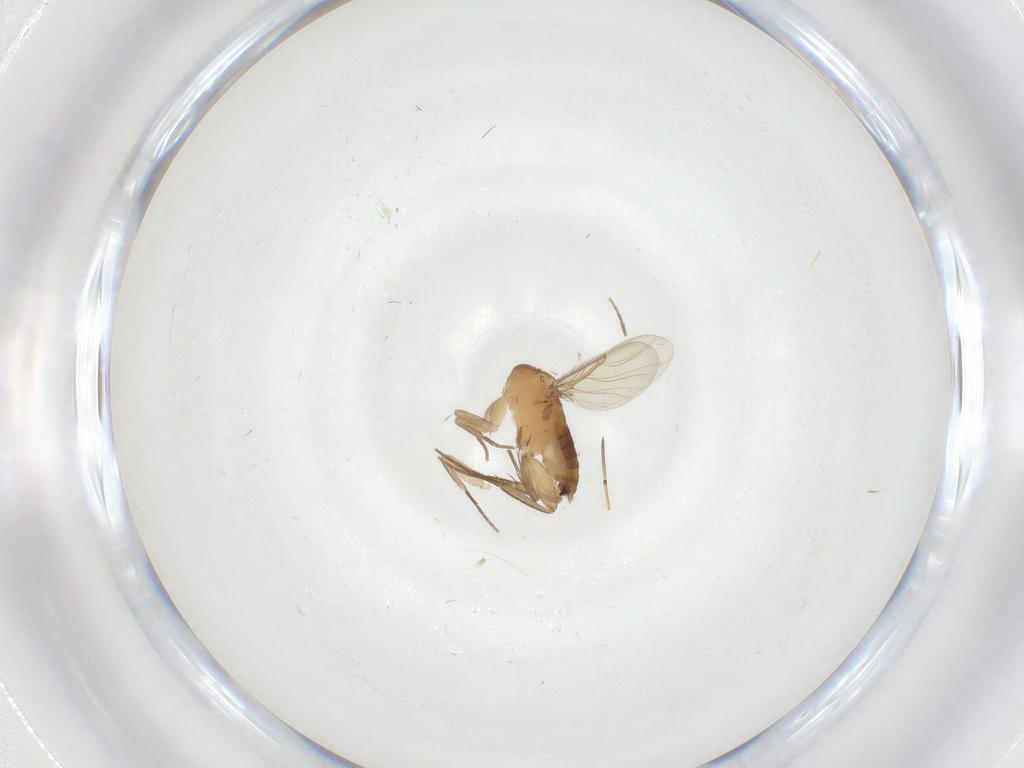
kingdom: Animalia
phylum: Arthropoda
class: Insecta
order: Diptera
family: Phoridae
